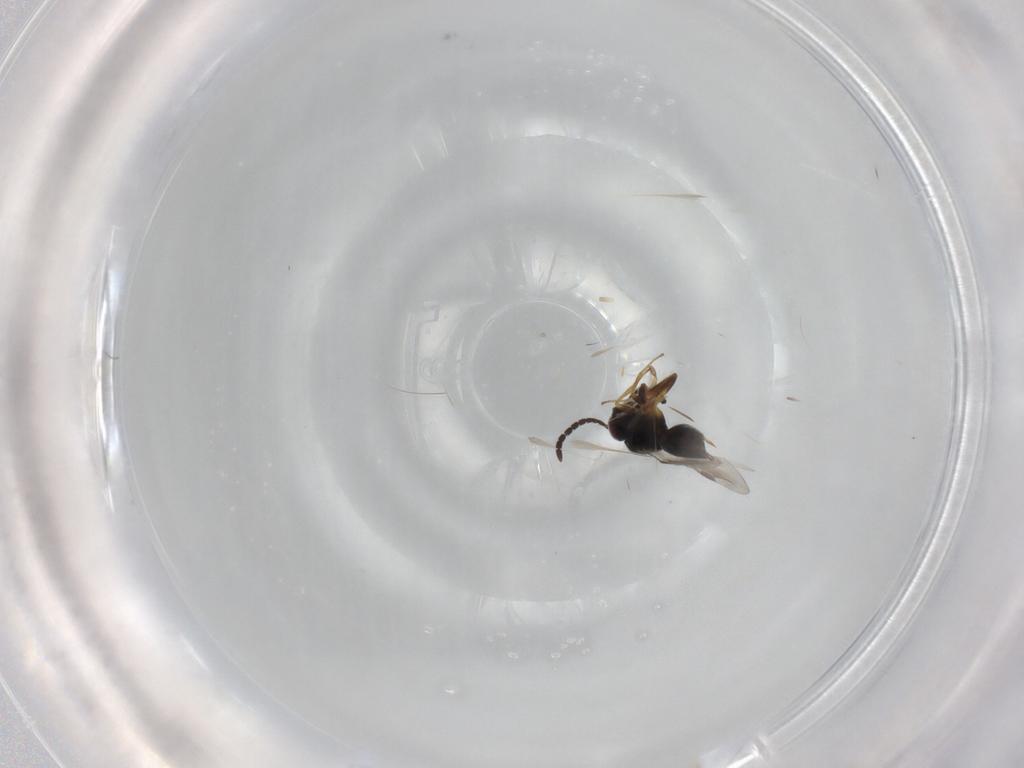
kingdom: Animalia
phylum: Arthropoda
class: Insecta
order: Hymenoptera
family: Megaspilidae
